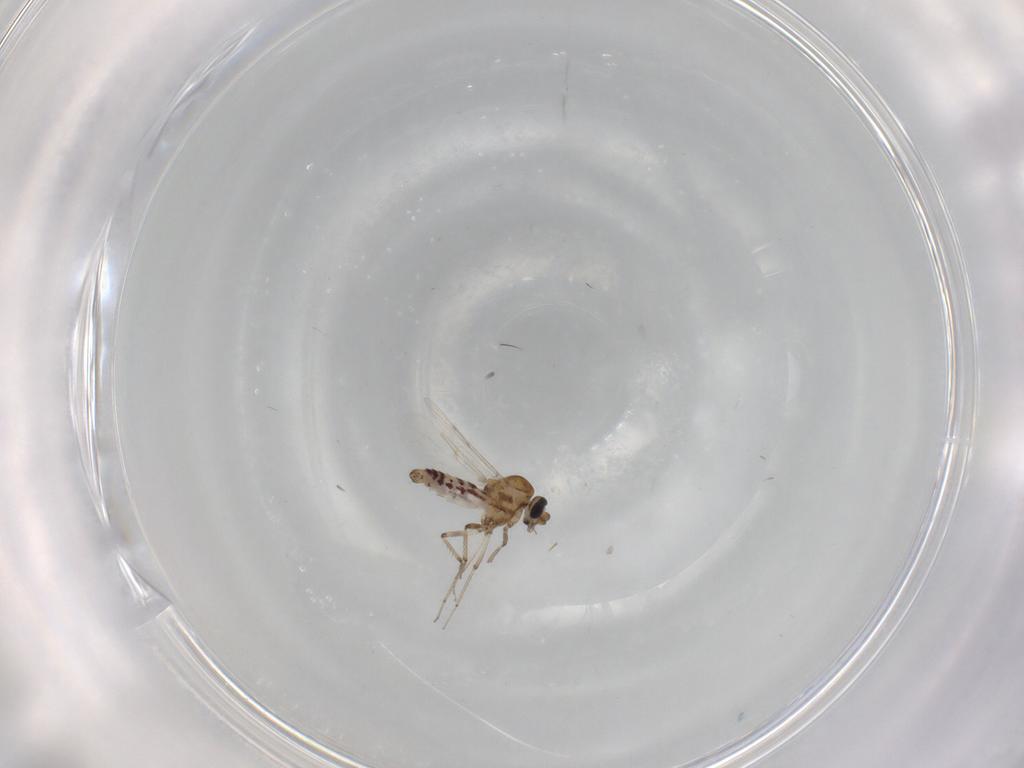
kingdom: Animalia
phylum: Arthropoda
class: Insecta
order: Diptera
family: Ceratopogonidae
